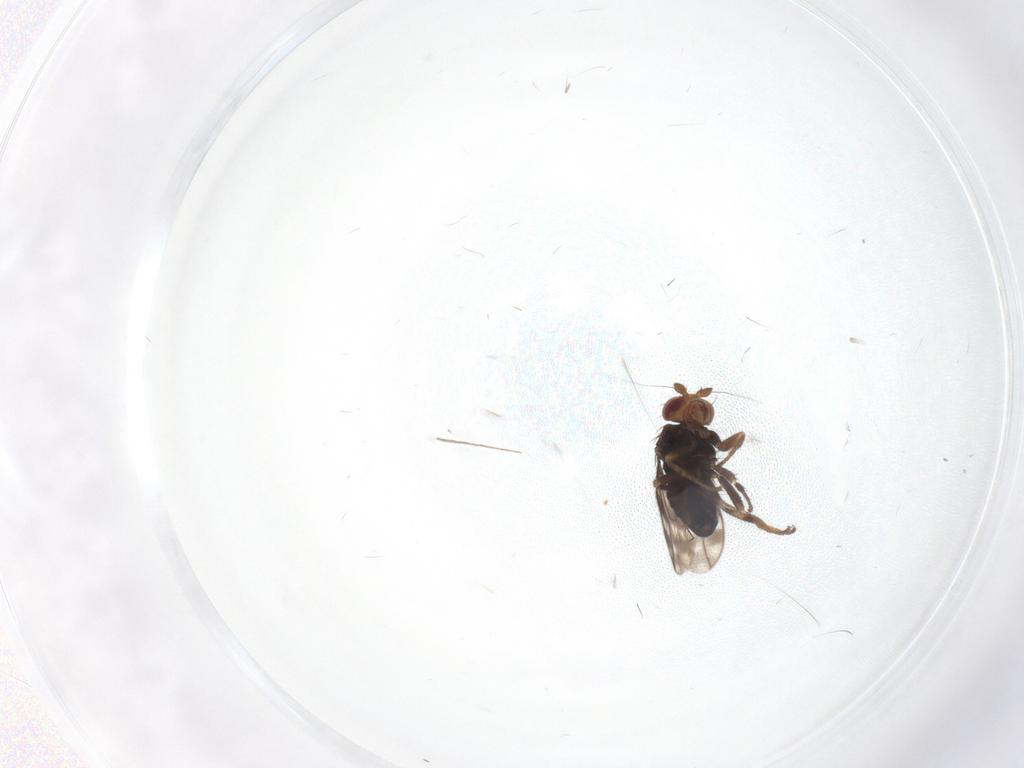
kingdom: Animalia
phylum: Arthropoda
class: Insecta
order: Diptera
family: Sphaeroceridae
